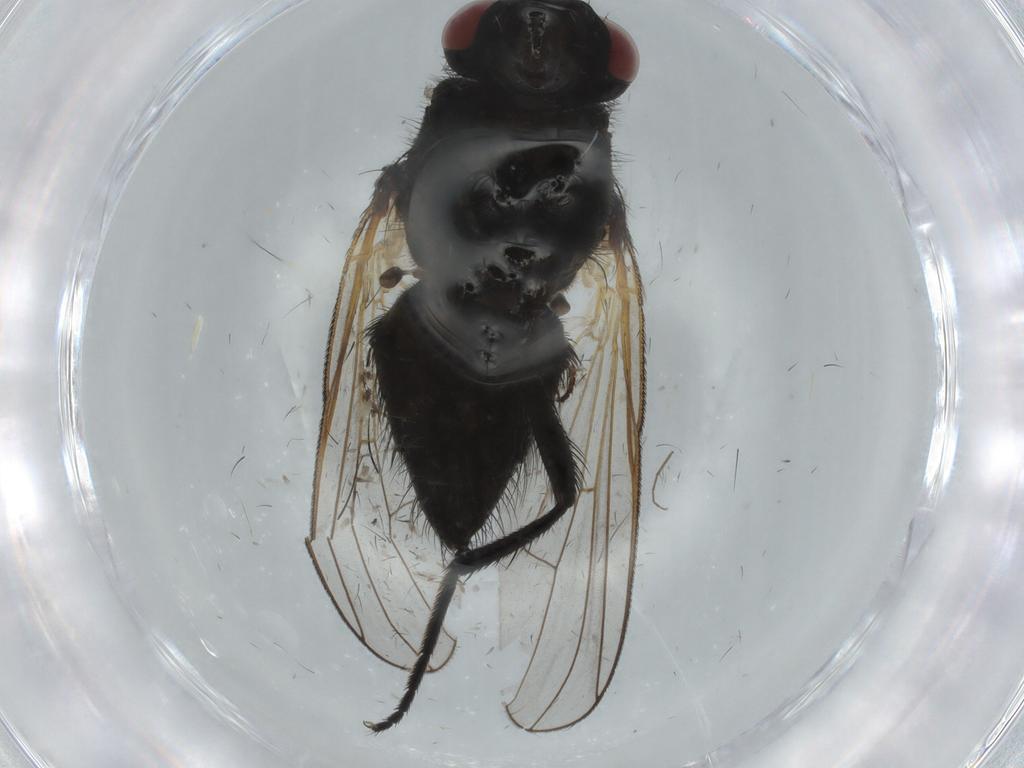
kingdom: Animalia
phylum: Arthropoda
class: Insecta
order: Diptera
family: Muscidae
